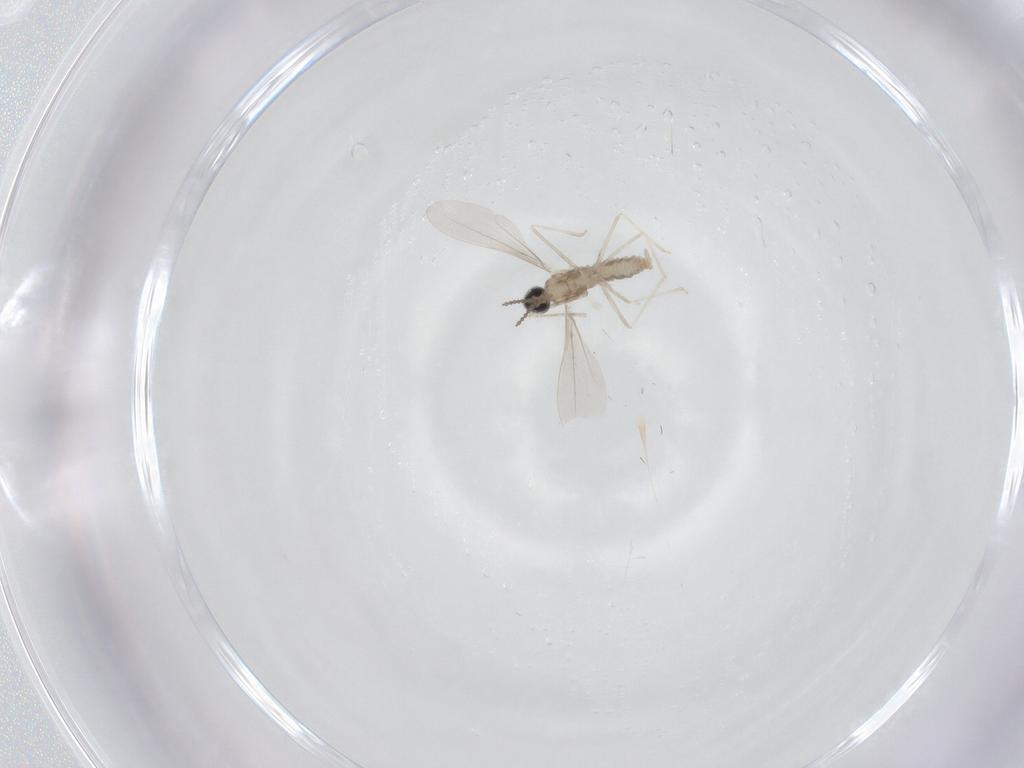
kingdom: Animalia
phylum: Arthropoda
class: Insecta
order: Diptera
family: Cecidomyiidae
